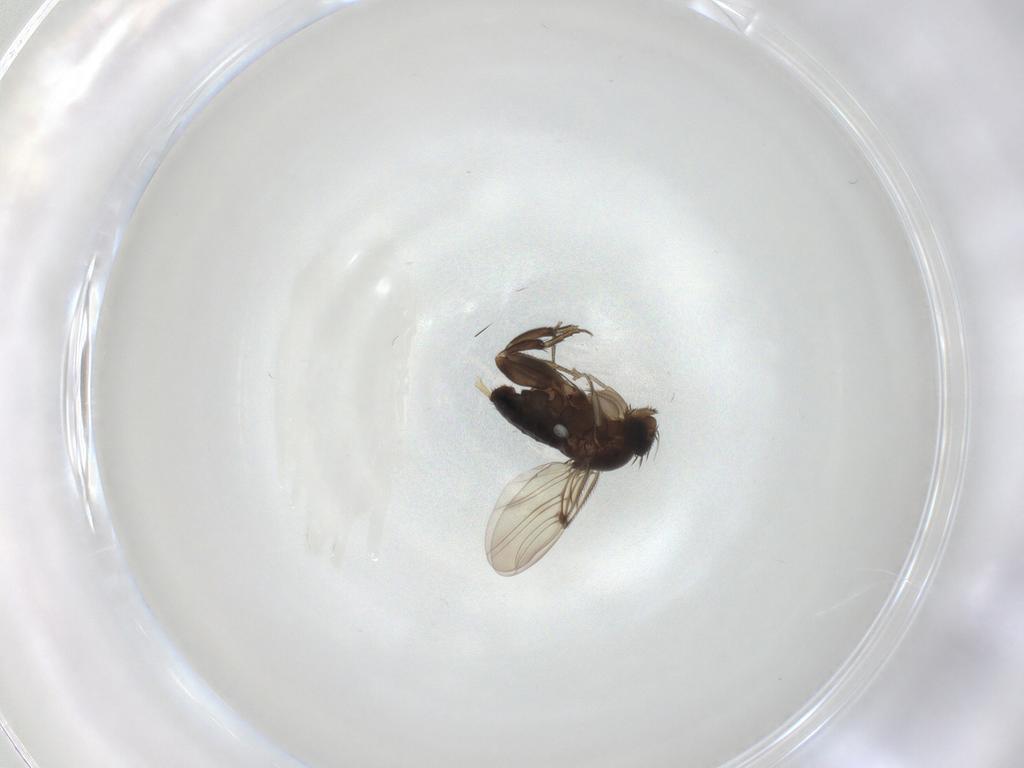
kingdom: Animalia
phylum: Arthropoda
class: Insecta
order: Diptera
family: Phoridae
